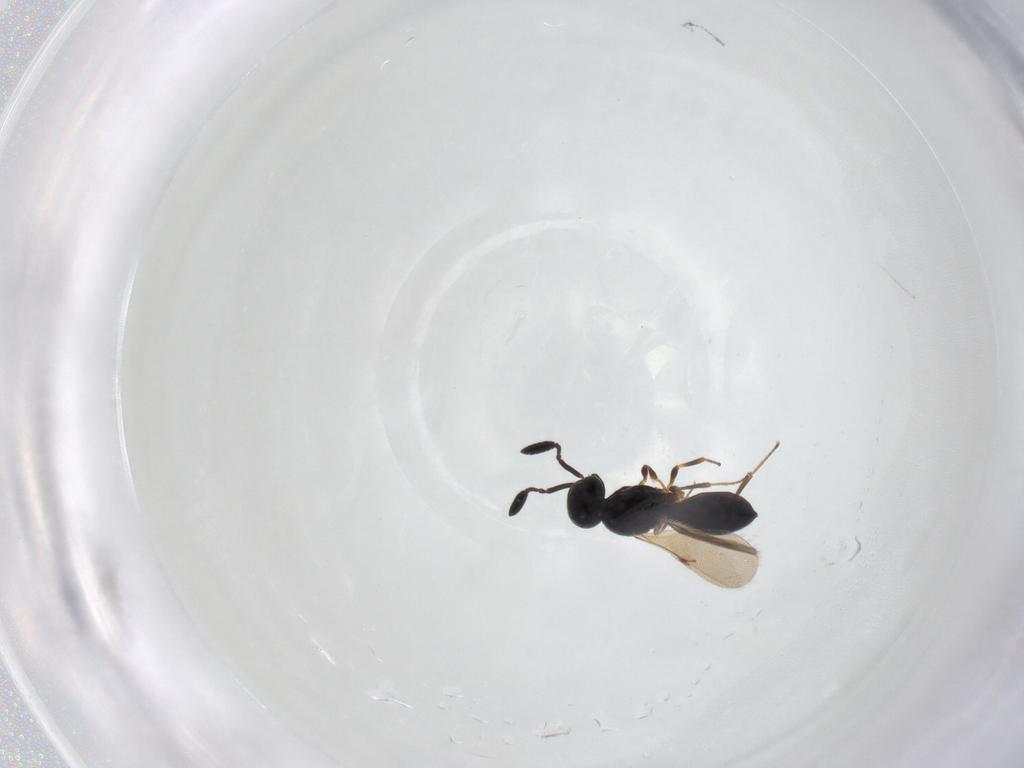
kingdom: Animalia
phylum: Arthropoda
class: Insecta
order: Hymenoptera
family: Scelionidae
